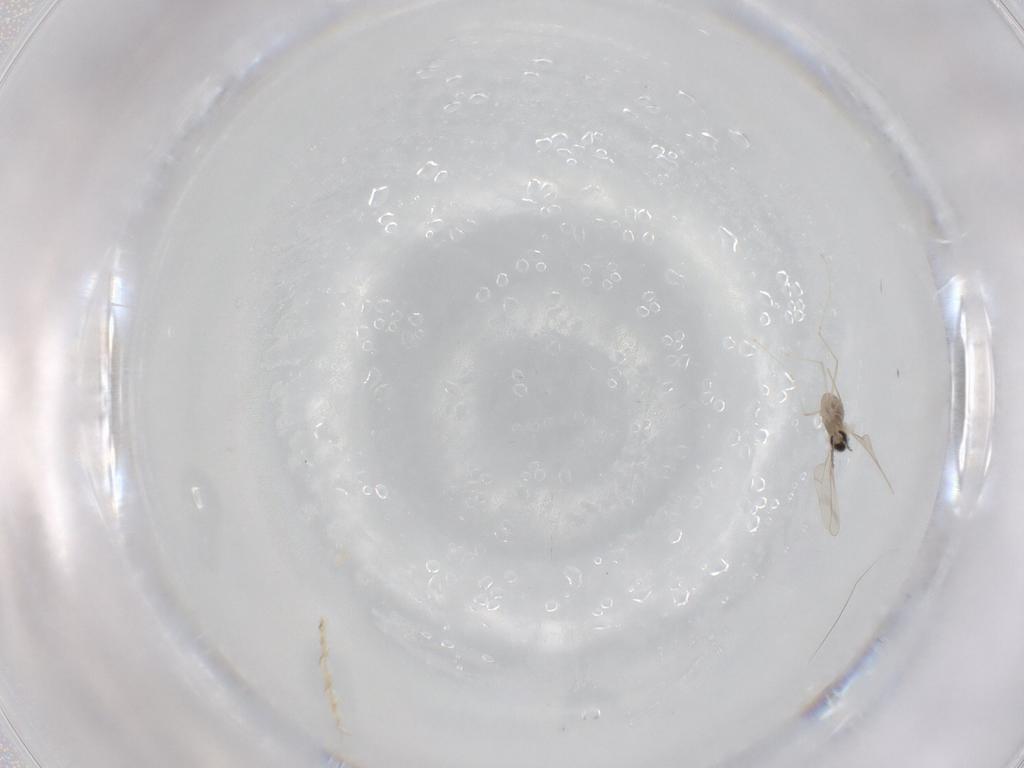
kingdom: Animalia
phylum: Arthropoda
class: Insecta
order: Diptera
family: Cecidomyiidae
